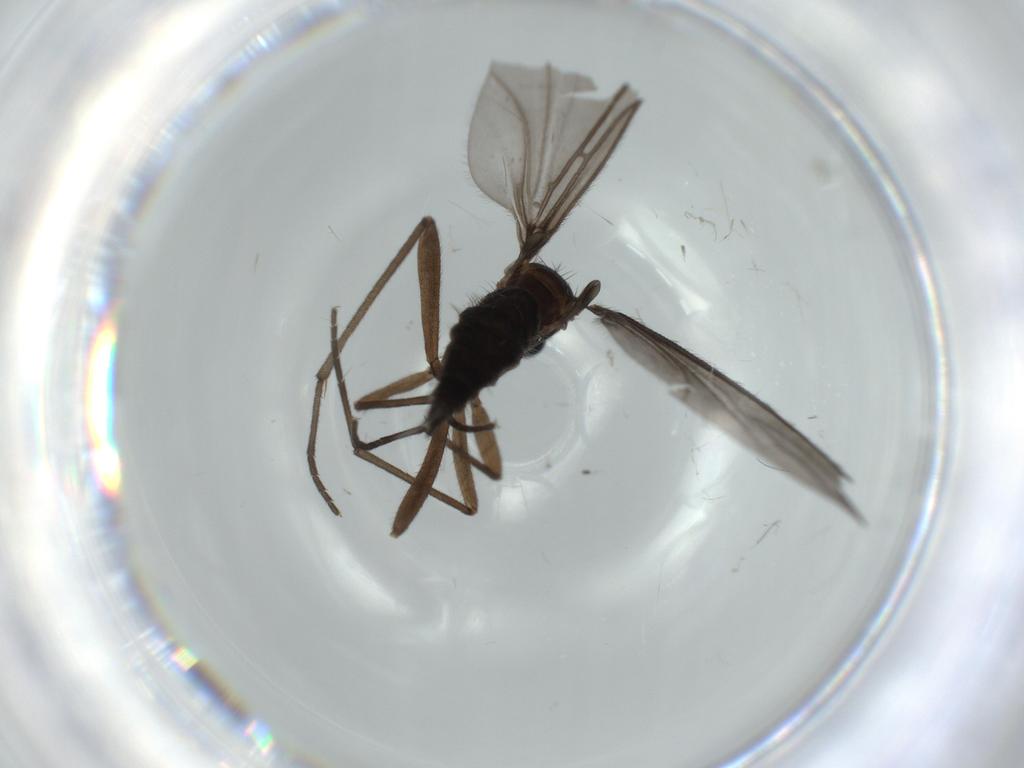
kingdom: Animalia
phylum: Arthropoda
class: Insecta
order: Diptera
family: Sciaridae
